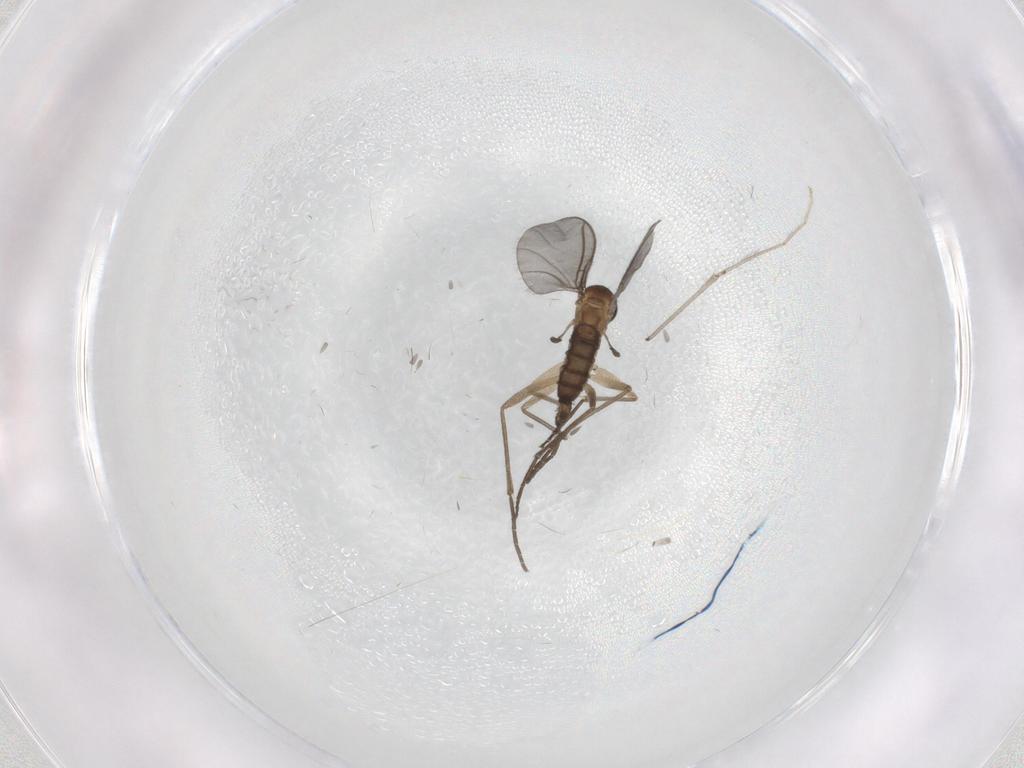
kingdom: Animalia
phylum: Arthropoda
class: Insecta
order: Diptera
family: Sciaridae
